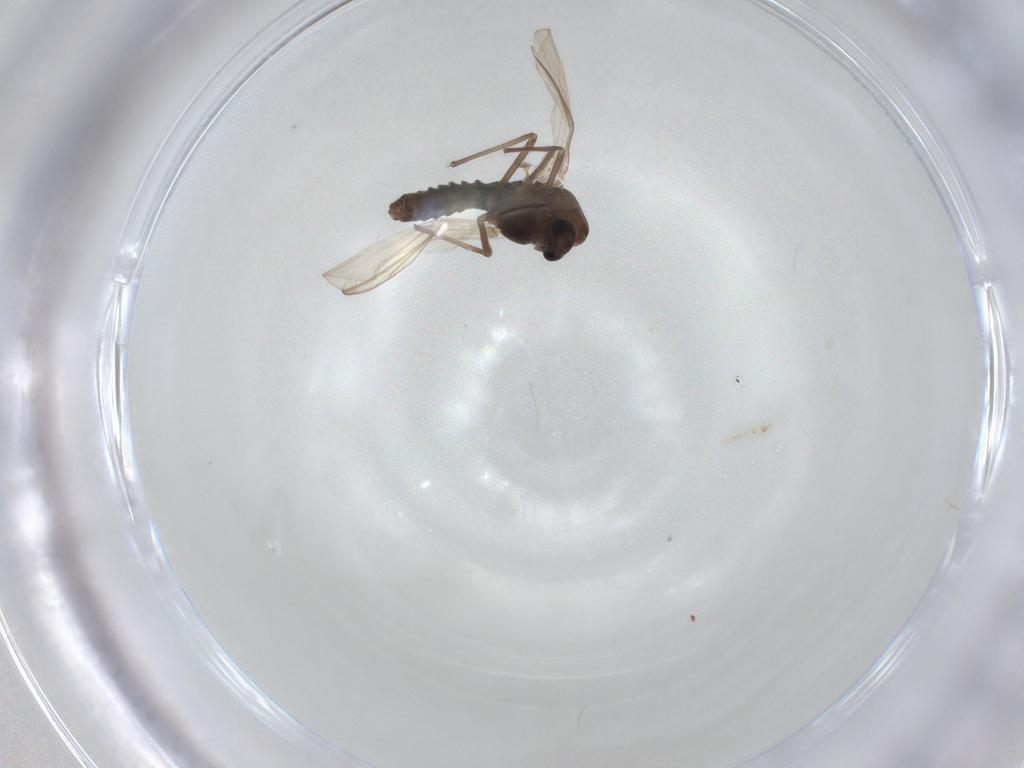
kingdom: Animalia
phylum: Arthropoda
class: Insecta
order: Diptera
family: Chironomidae
